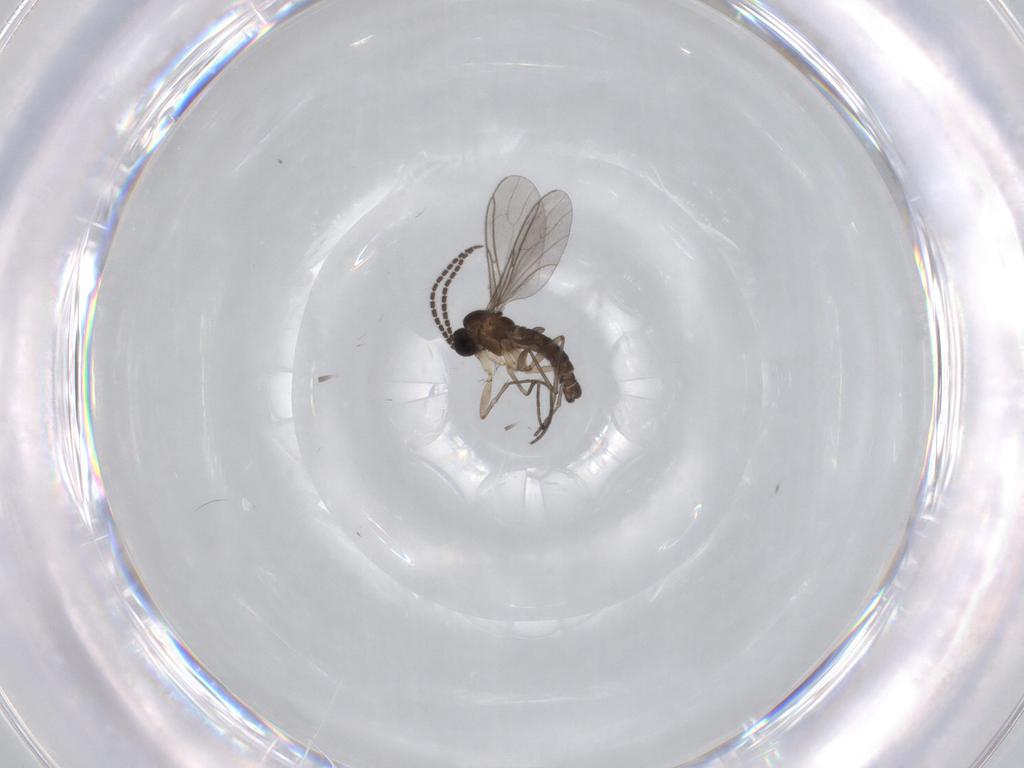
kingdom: Animalia
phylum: Arthropoda
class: Insecta
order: Diptera
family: Sciaridae
